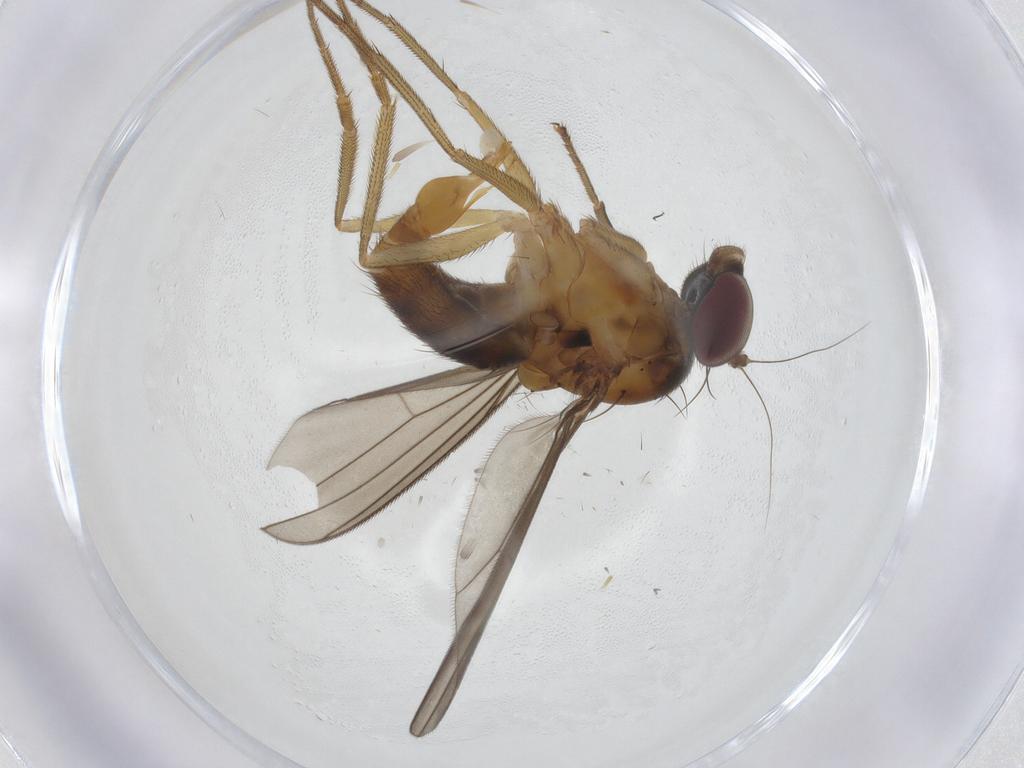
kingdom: Animalia
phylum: Arthropoda
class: Insecta
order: Diptera
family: Dolichopodidae
